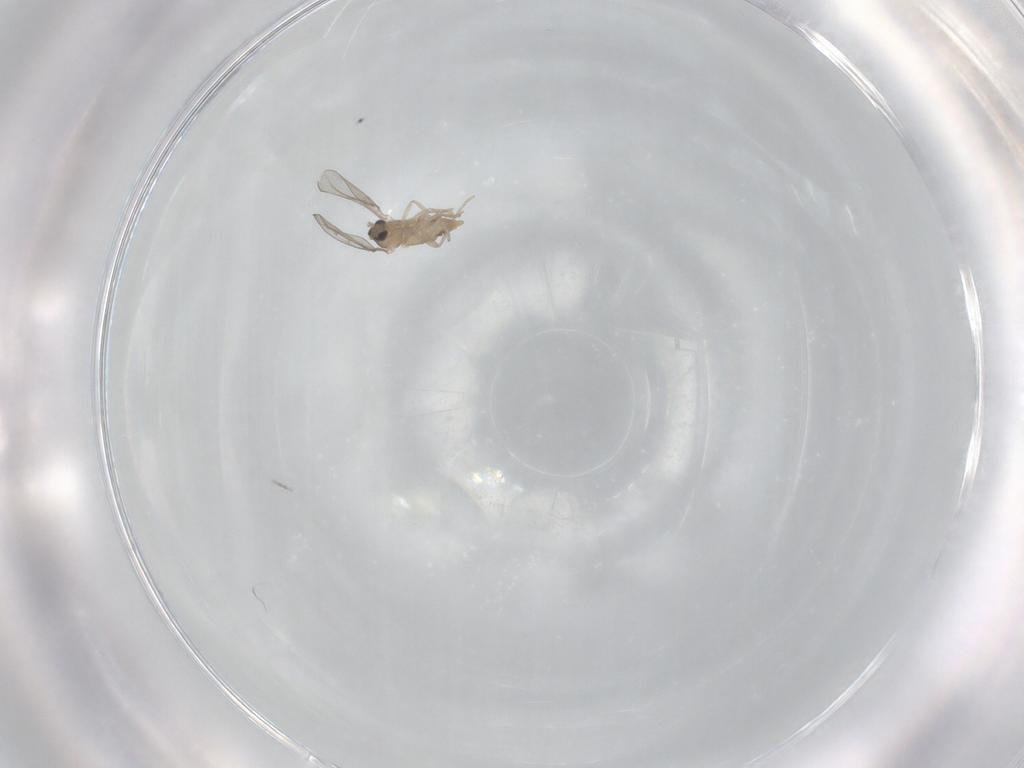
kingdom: Animalia
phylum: Arthropoda
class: Insecta
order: Diptera
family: Cecidomyiidae
